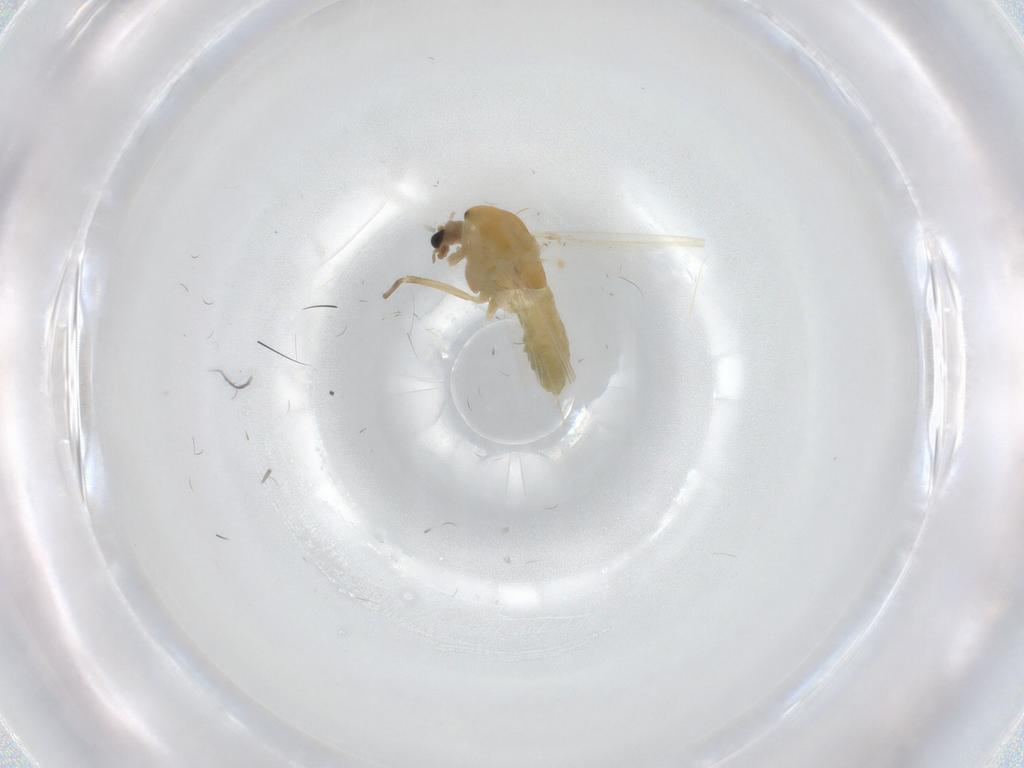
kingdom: Animalia
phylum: Arthropoda
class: Insecta
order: Diptera
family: Chironomidae
